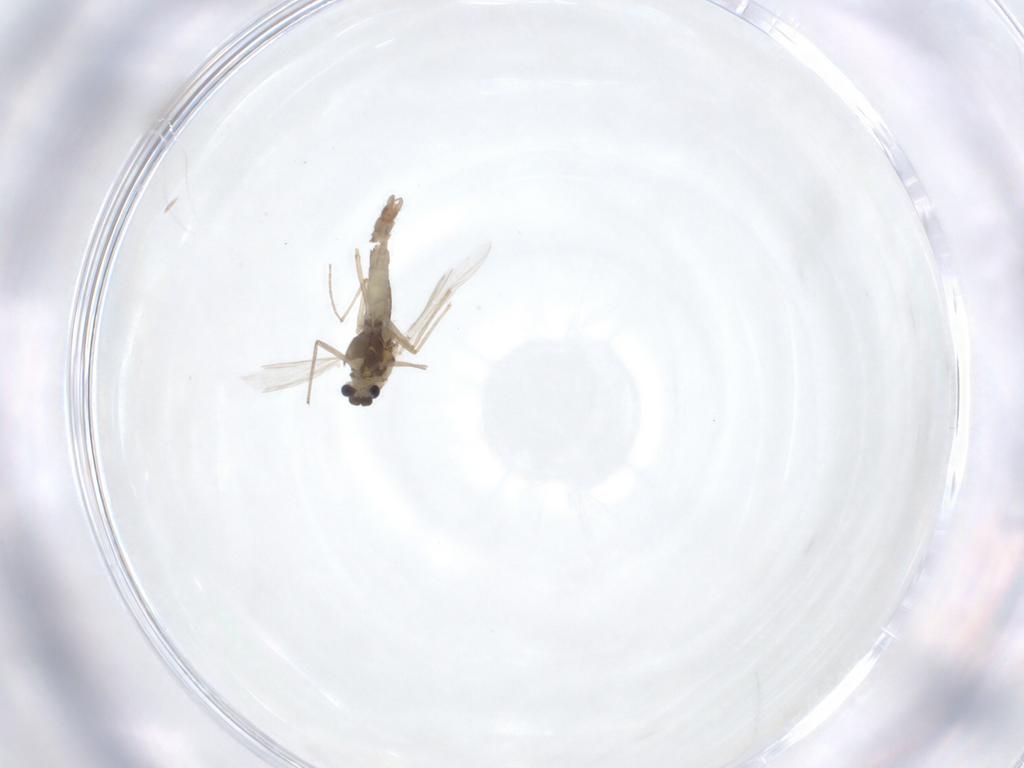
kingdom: Animalia
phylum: Arthropoda
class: Insecta
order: Diptera
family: Chironomidae
